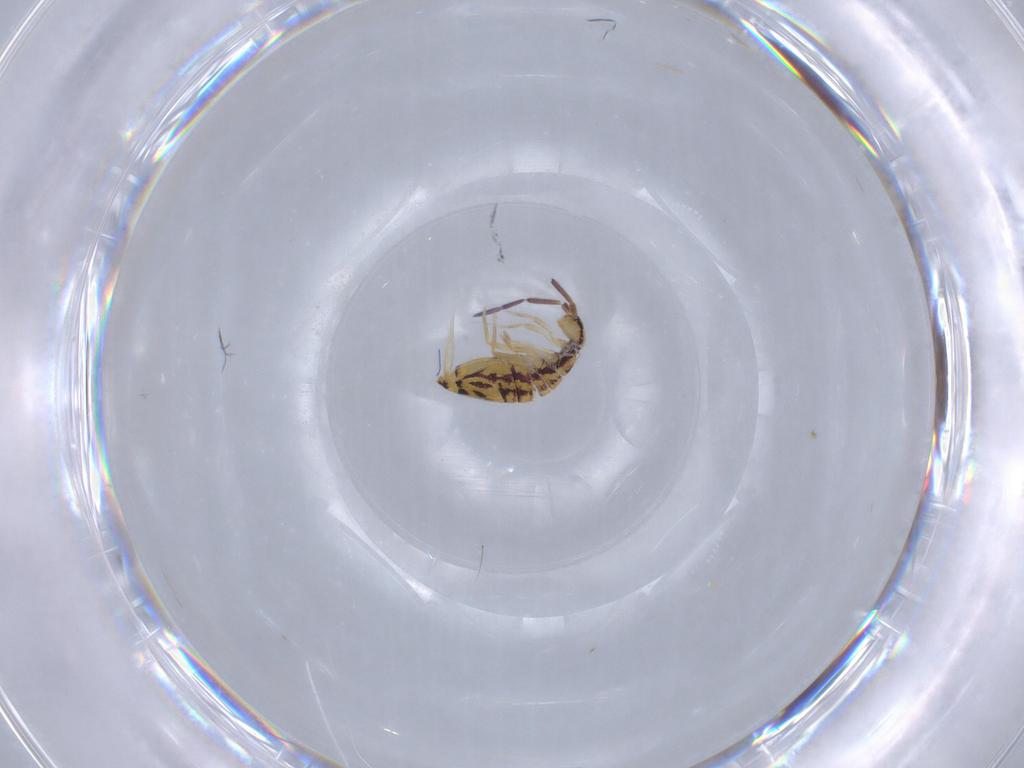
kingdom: Animalia
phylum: Arthropoda
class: Collembola
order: Entomobryomorpha
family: Entomobryidae
